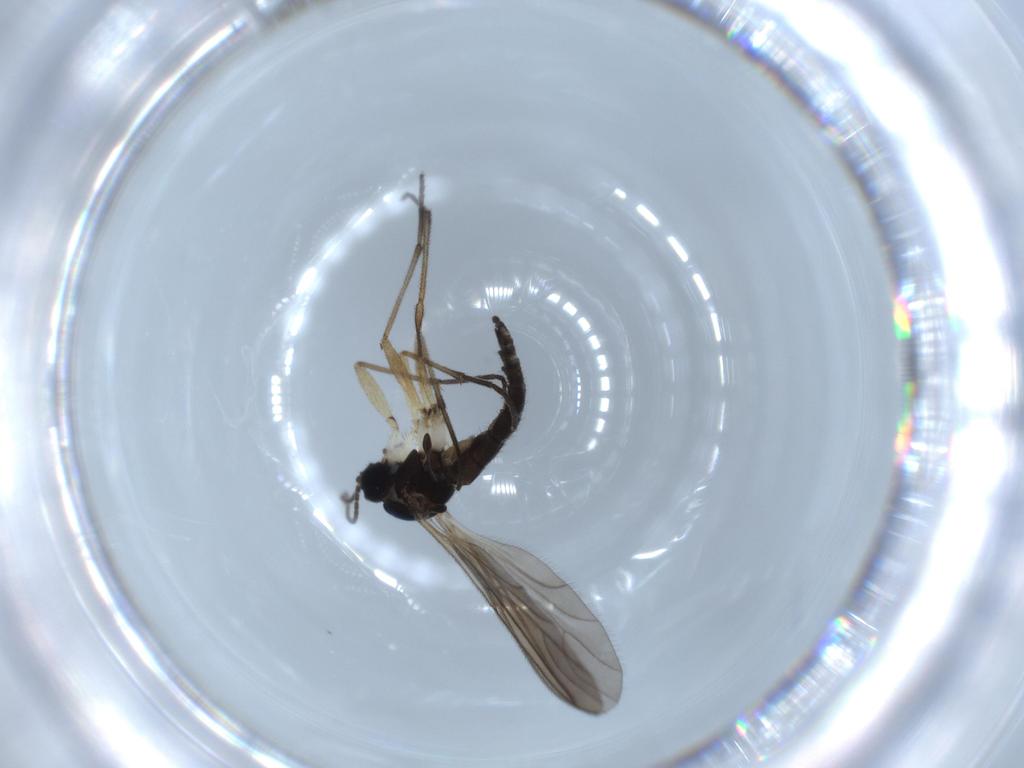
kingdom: Animalia
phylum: Arthropoda
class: Insecta
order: Diptera
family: Sciaridae
